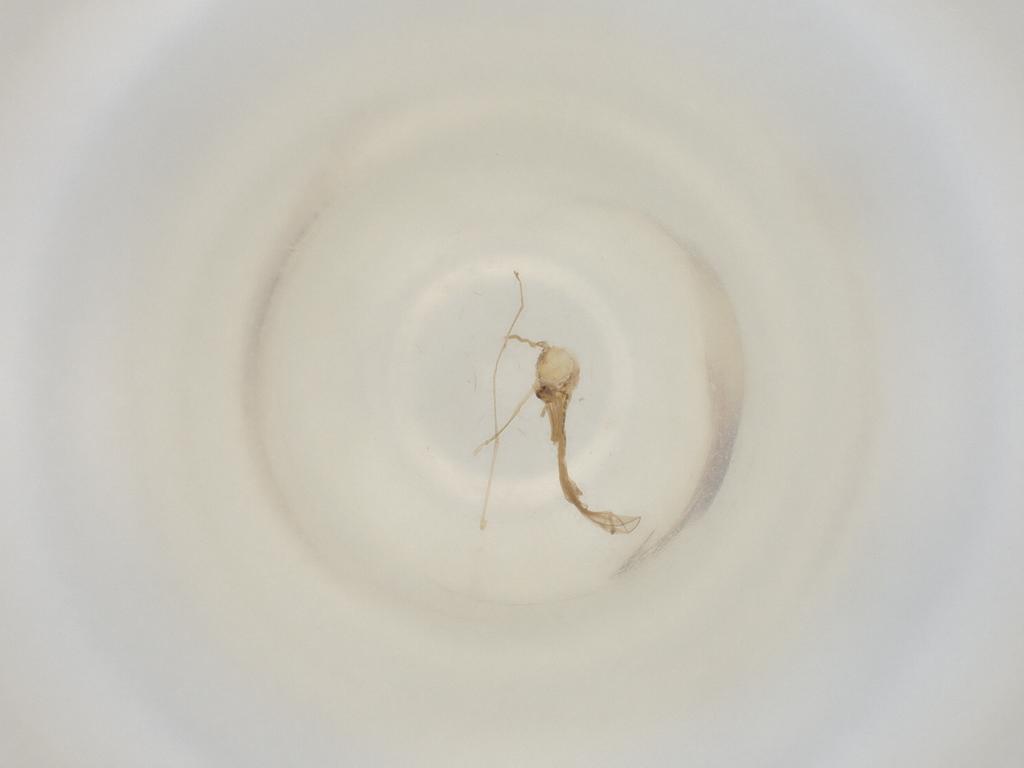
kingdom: Animalia
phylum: Arthropoda
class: Insecta
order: Diptera
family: Cecidomyiidae
